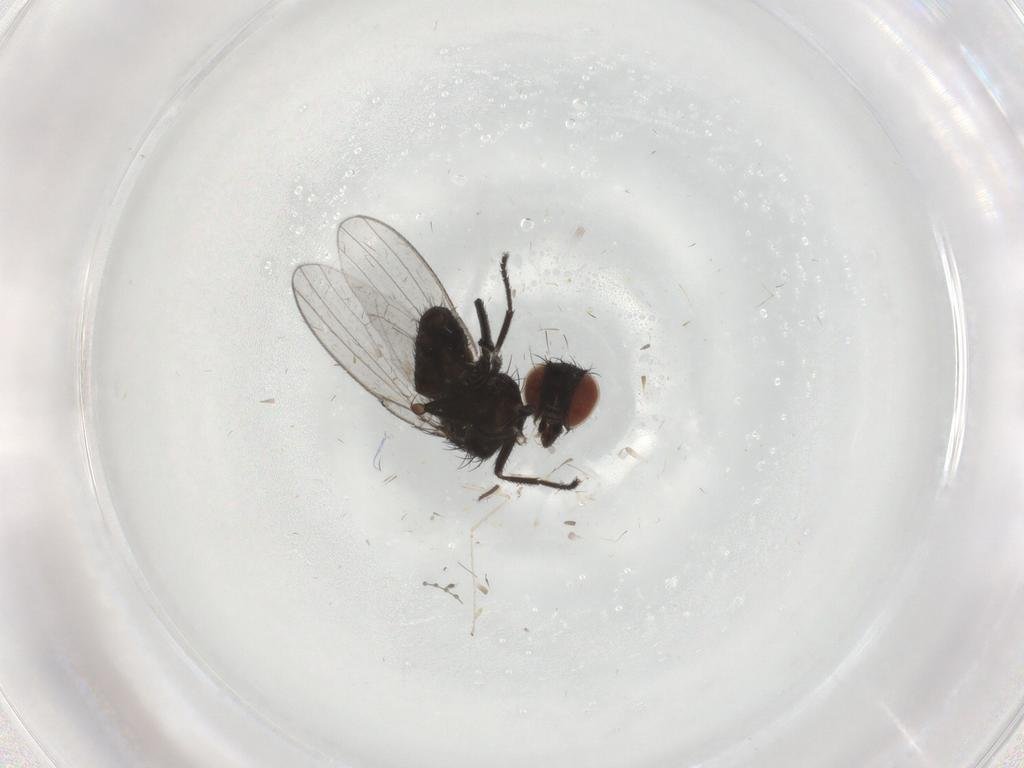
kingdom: Animalia
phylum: Arthropoda
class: Insecta
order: Diptera
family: Milichiidae
